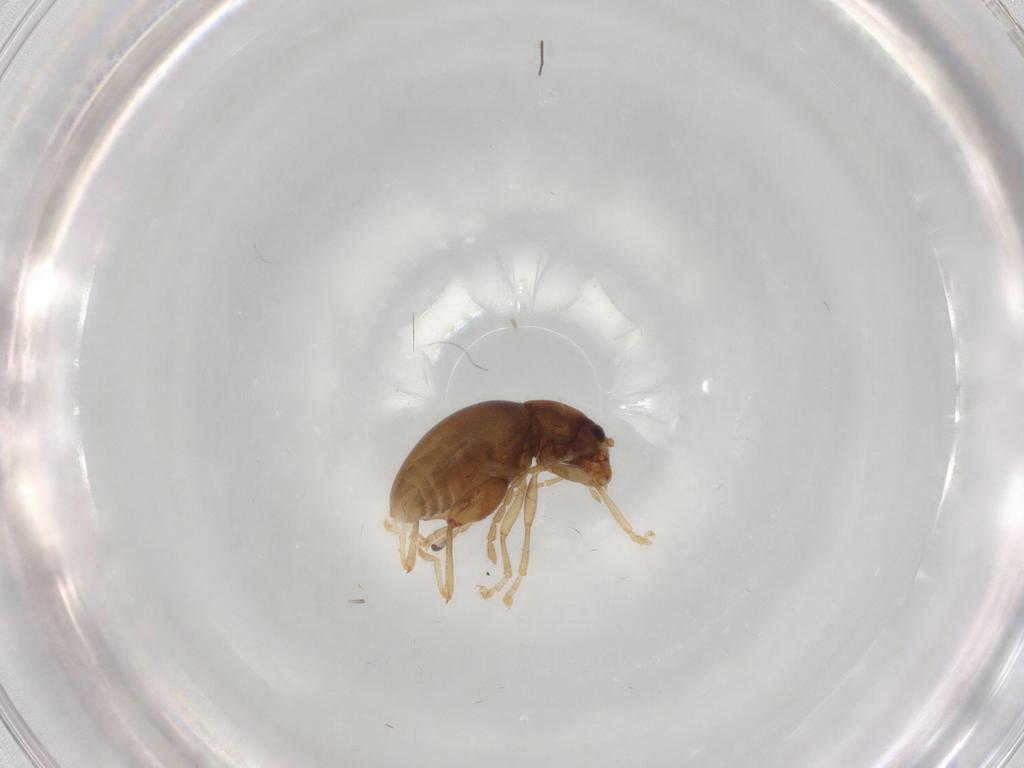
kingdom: Animalia
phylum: Arthropoda
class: Insecta
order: Coleoptera
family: Chrysomelidae
